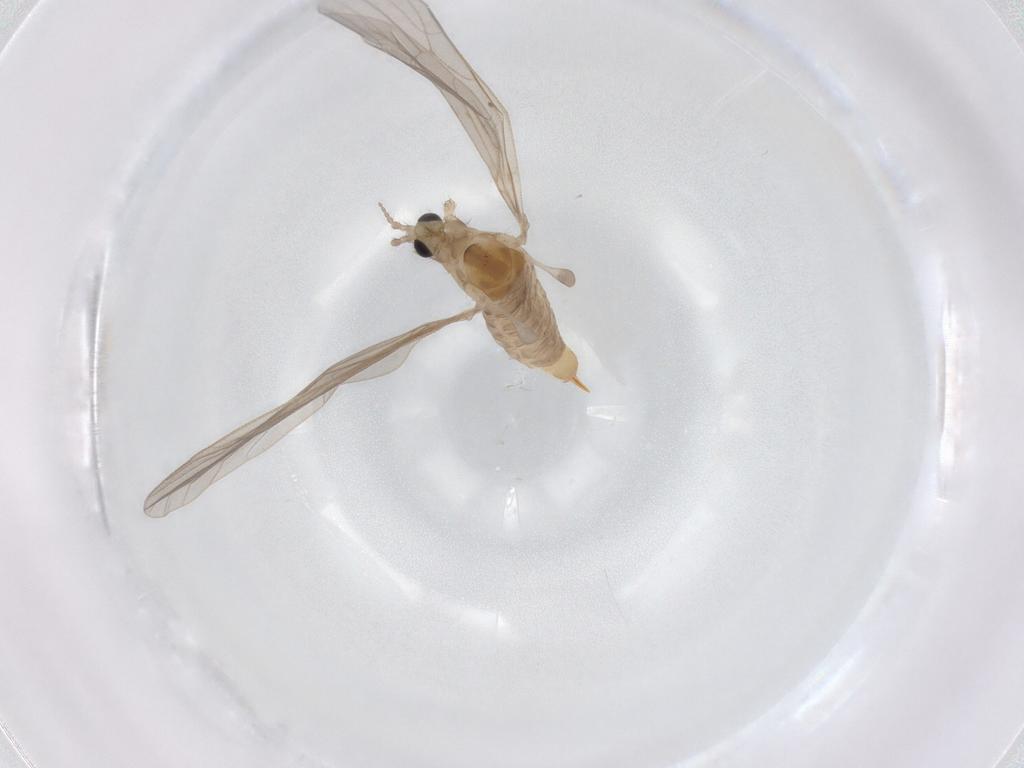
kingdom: Animalia
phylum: Arthropoda
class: Insecta
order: Diptera
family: Limoniidae
